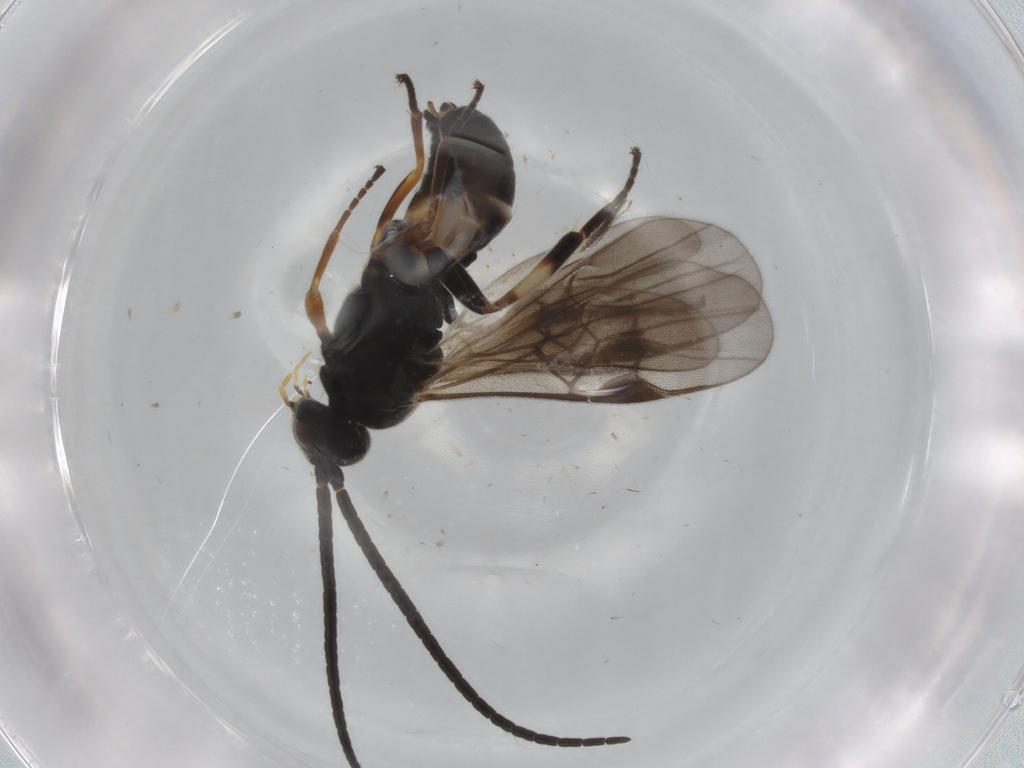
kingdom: Animalia
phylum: Arthropoda
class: Insecta
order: Hymenoptera
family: Braconidae
